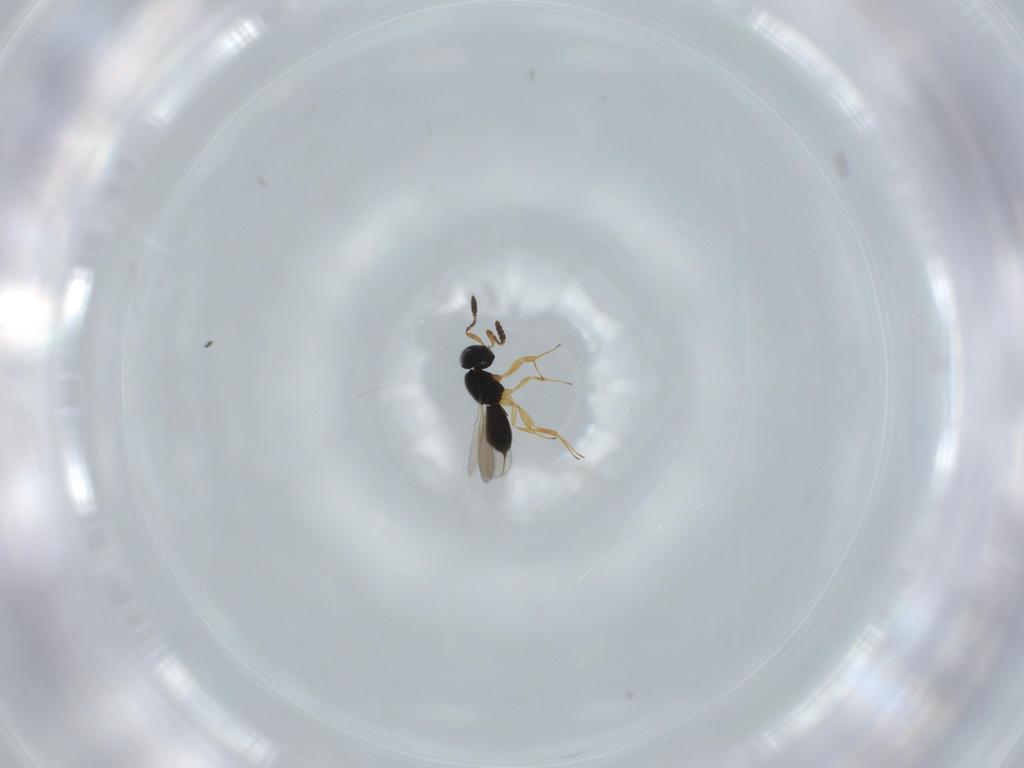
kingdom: Animalia
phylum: Arthropoda
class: Insecta
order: Hymenoptera
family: Scelionidae
